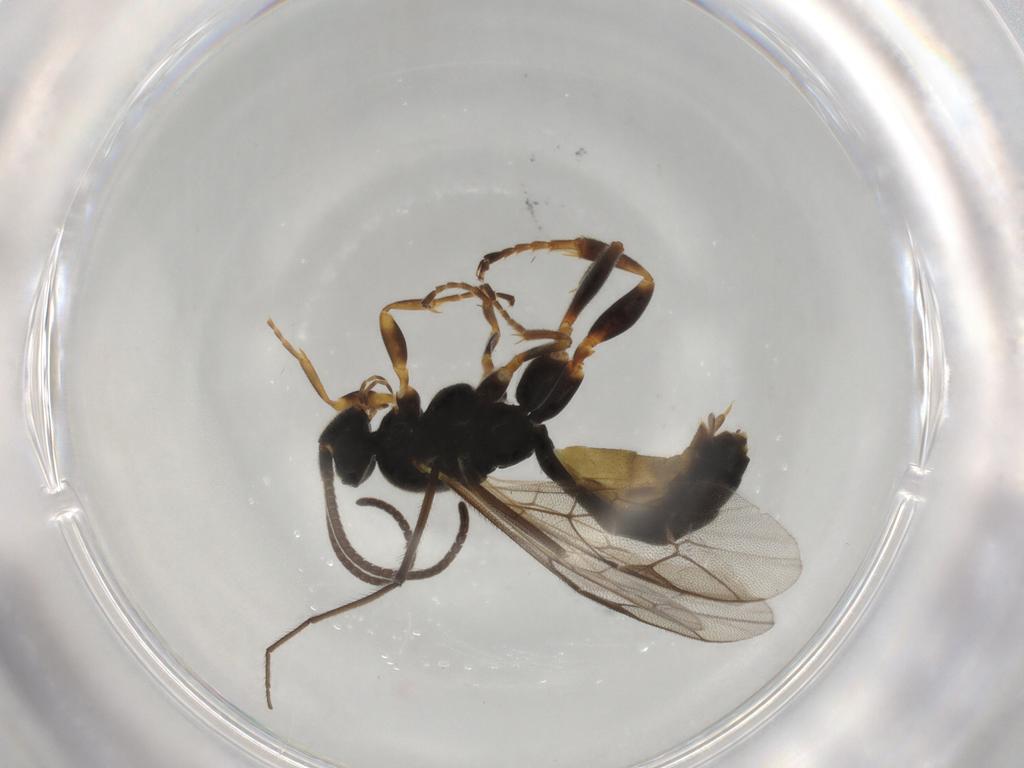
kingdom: Animalia
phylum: Arthropoda
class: Insecta
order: Hymenoptera
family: Ichneumonidae
